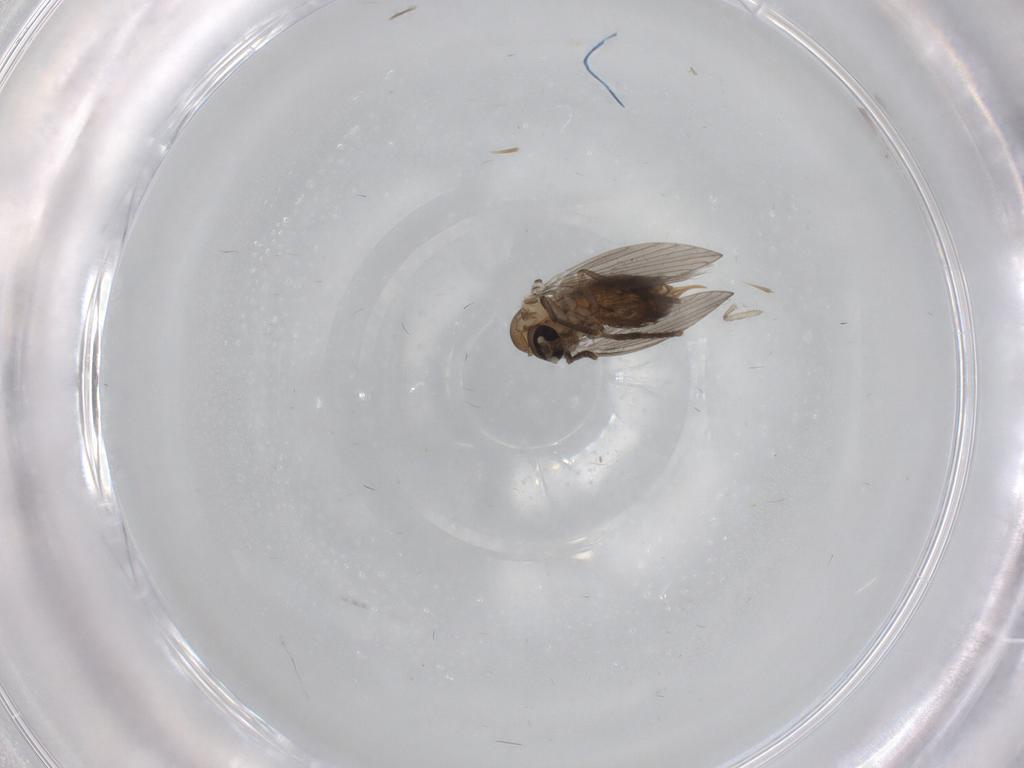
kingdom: Animalia
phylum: Arthropoda
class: Insecta
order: Diptera
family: Psychodidae
